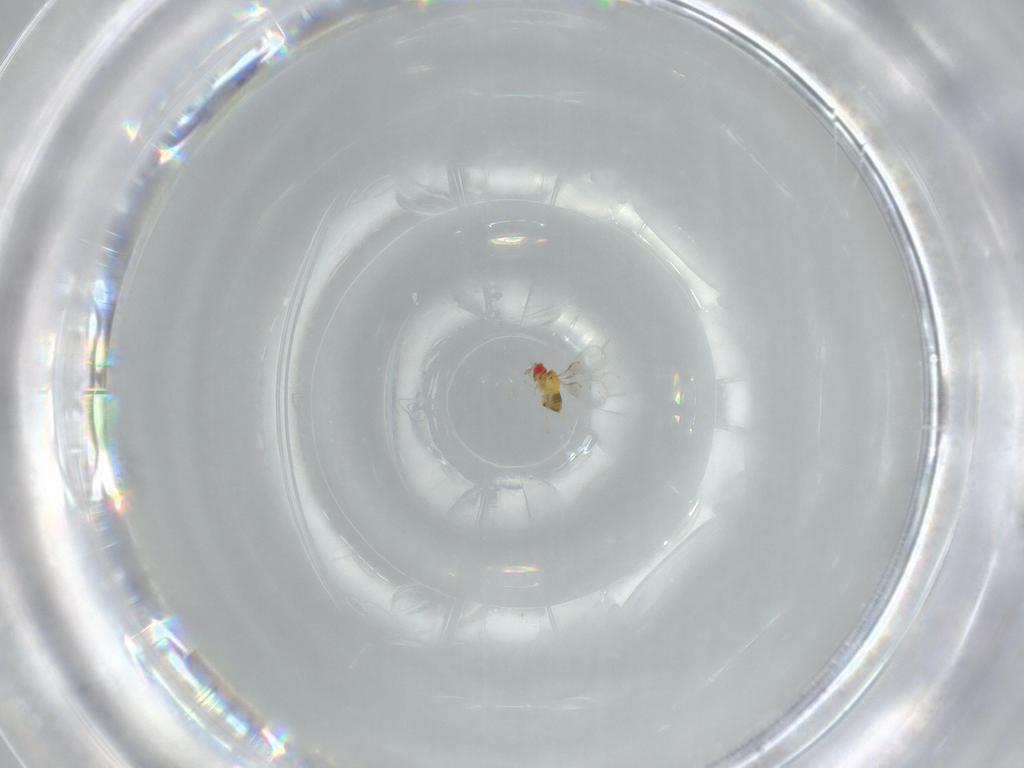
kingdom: Animalia
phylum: Arthropoda
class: Insecta
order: Hymenoptera
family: Trichogrammatidae
